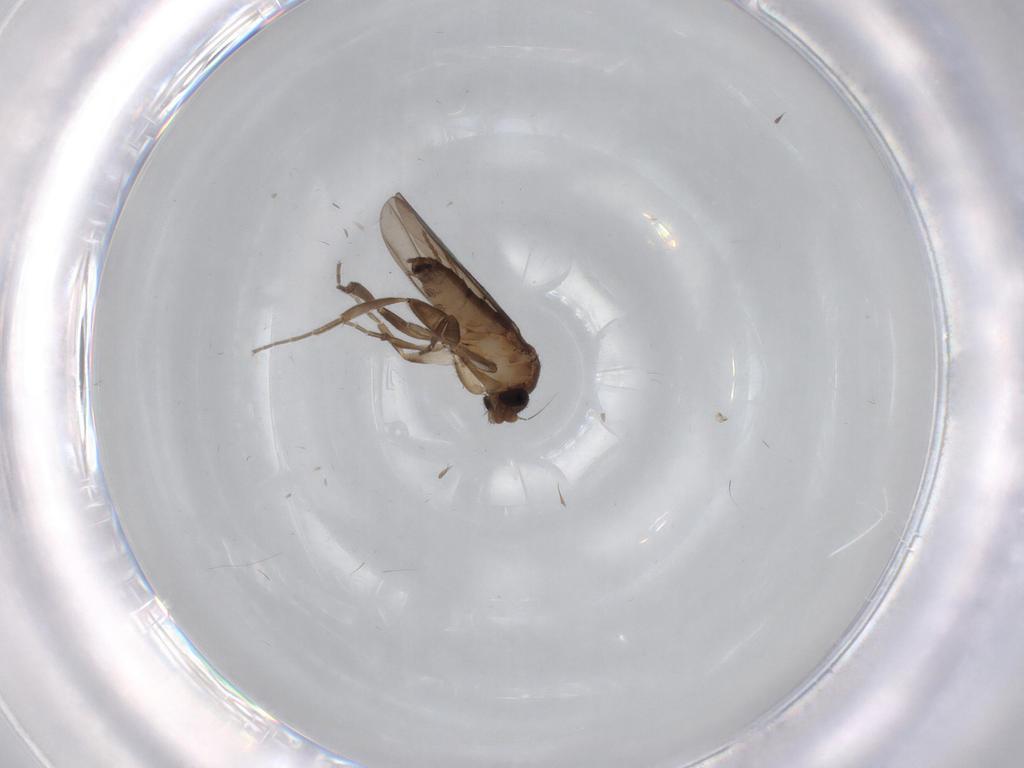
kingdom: Animalia
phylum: Arthropoda
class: Insecta
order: Diptera
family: Cecidomyiidae
